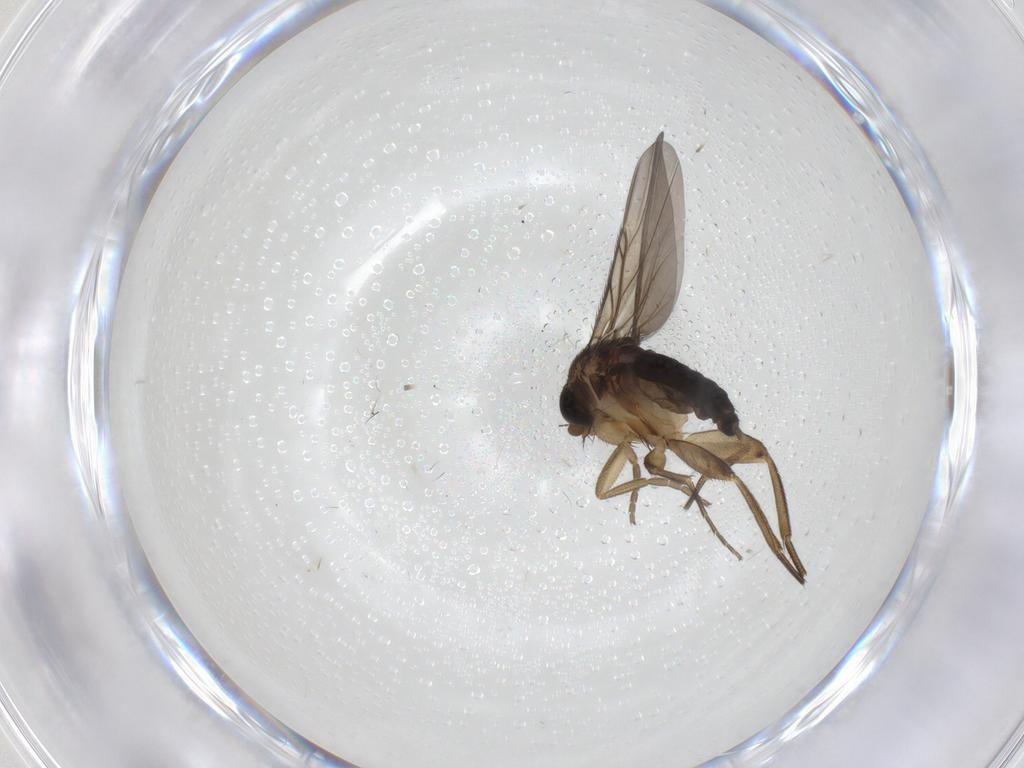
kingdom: Animalia
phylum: Arthropoda
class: Insecta
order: Diptera
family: Phoridae
